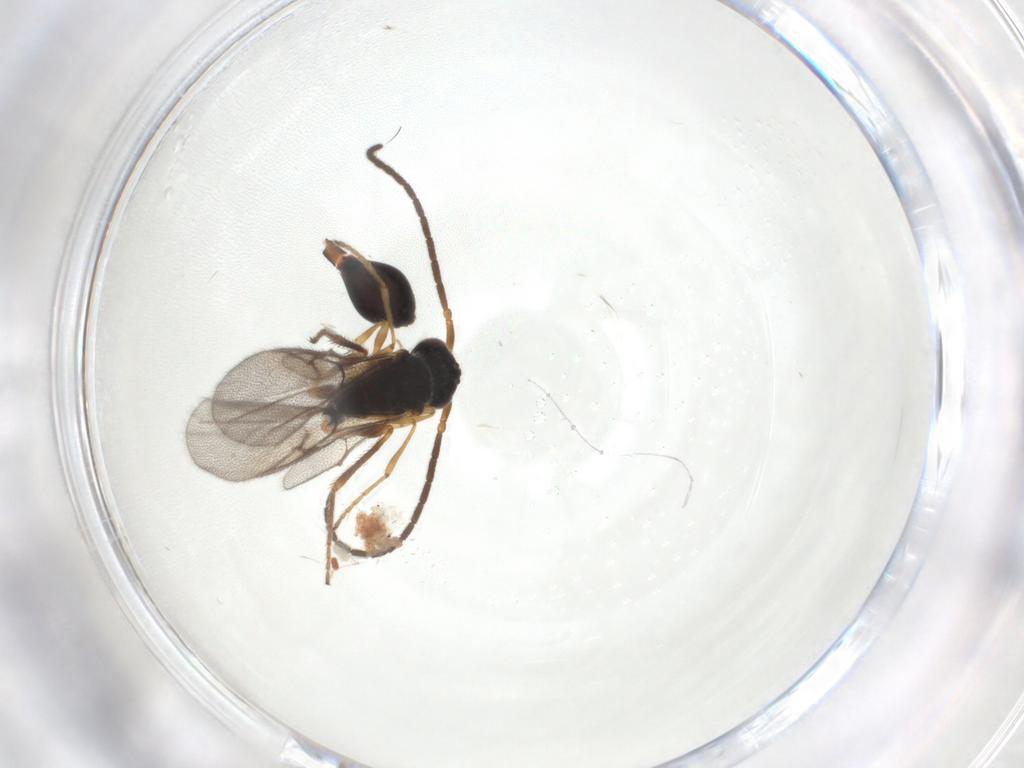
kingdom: Animalia
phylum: Arthropoda
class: Insecta
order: Hymenoptera
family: Diapriidae
